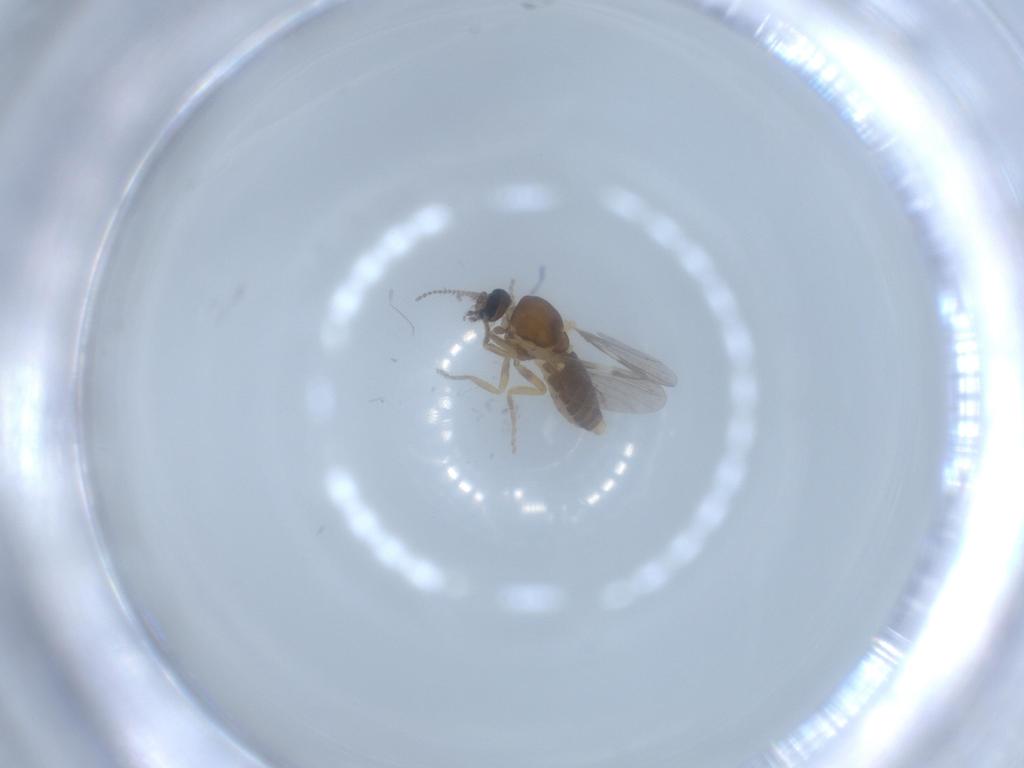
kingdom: Animalia
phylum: Arthropoda
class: Insecta
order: Diptera
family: Ceratopogonidae
